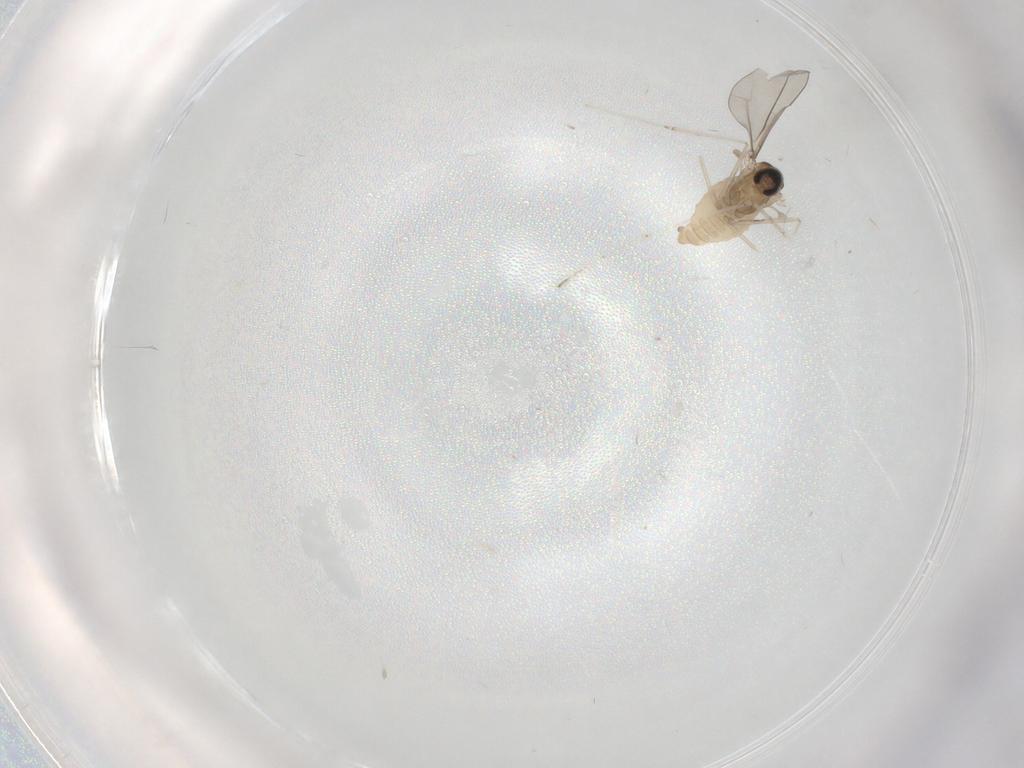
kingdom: Animalia
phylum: Arthropoda
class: Insecta
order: Diptera
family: Cecidomyiidae
